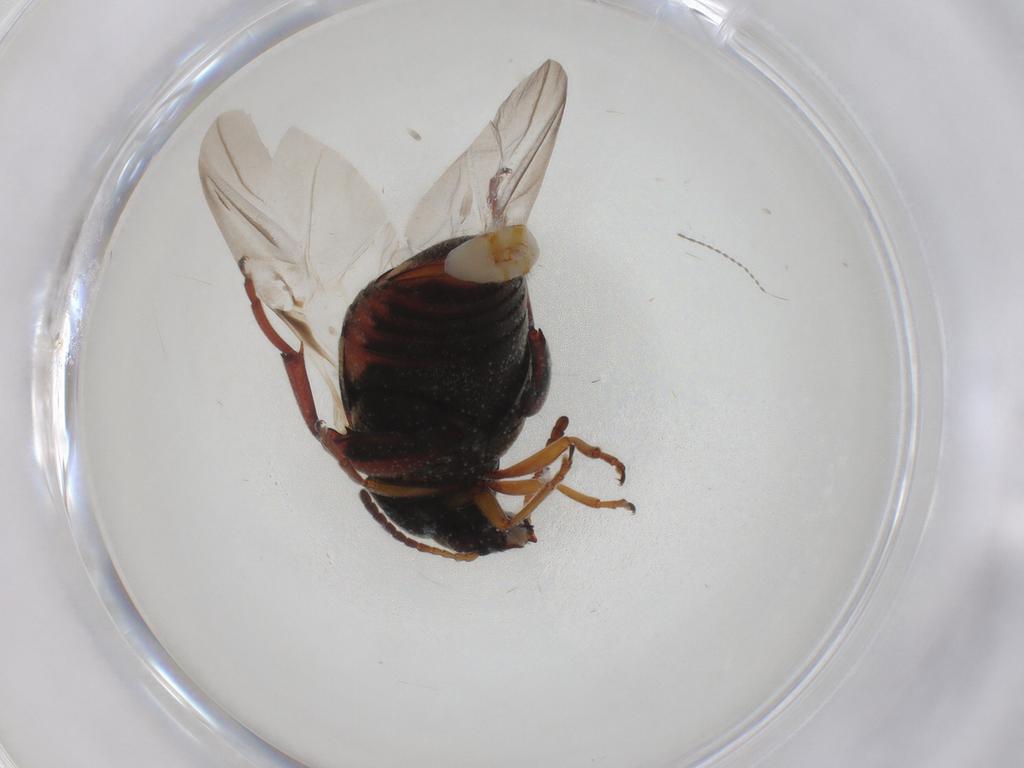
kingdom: Animalia
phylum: Arthropoda
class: Insecta
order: Coleoptera
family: Chrysomelidae
